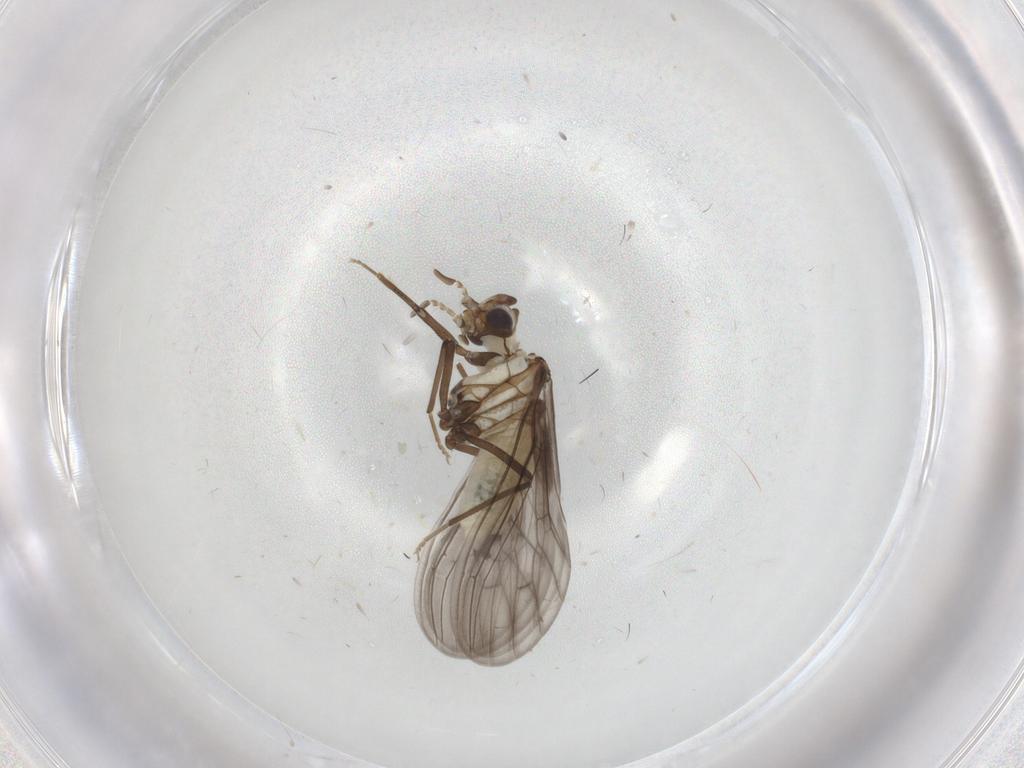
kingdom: Animalia
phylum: Arthropoda
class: Insecta
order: Neuroptera
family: Coniopterygidae
